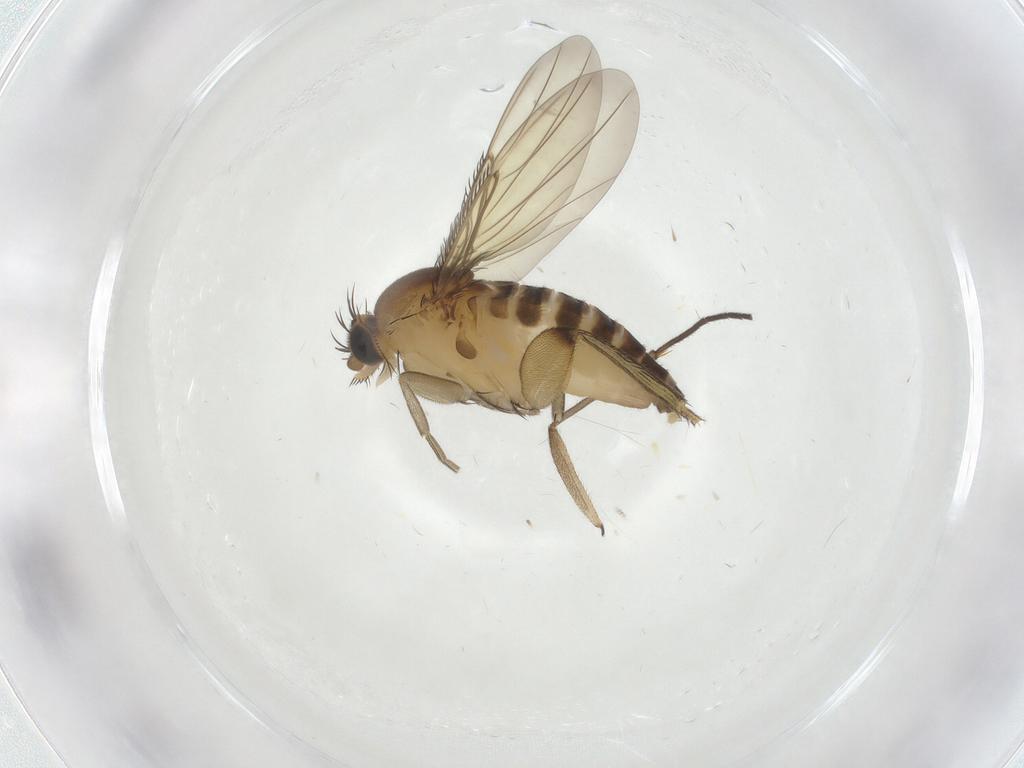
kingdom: Animalia
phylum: Arthropoda
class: Insecta
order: Diptera
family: Phoridae
